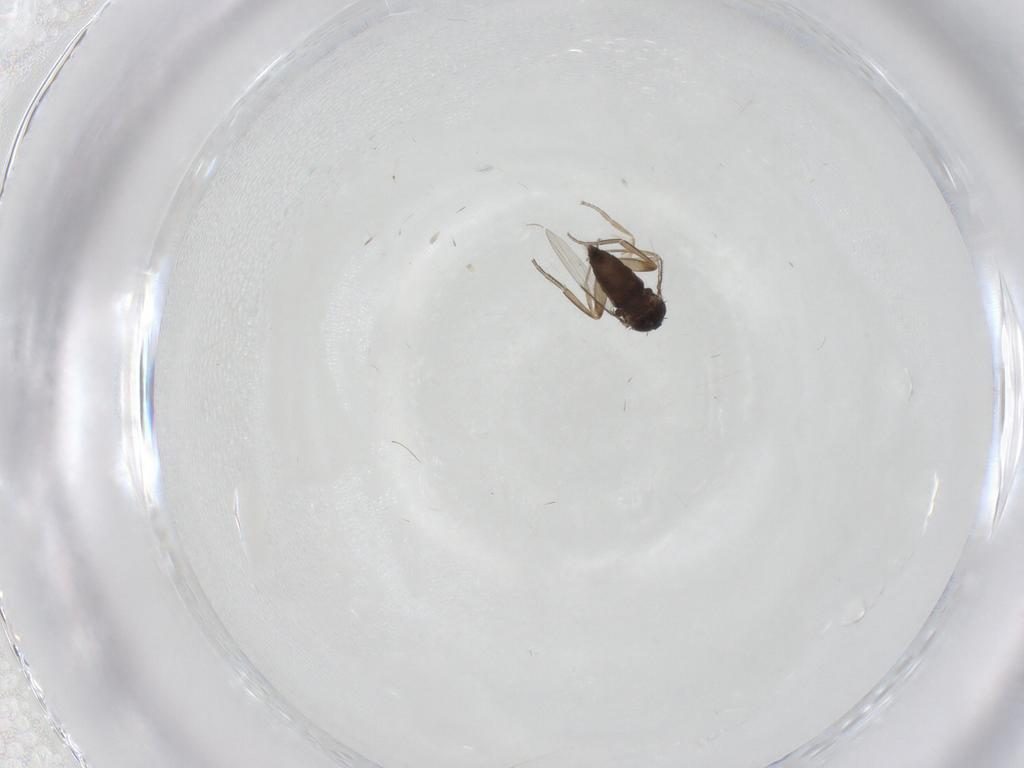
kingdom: Animalia
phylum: Arthropoda
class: Insecta
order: Diptera
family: Phoridae
